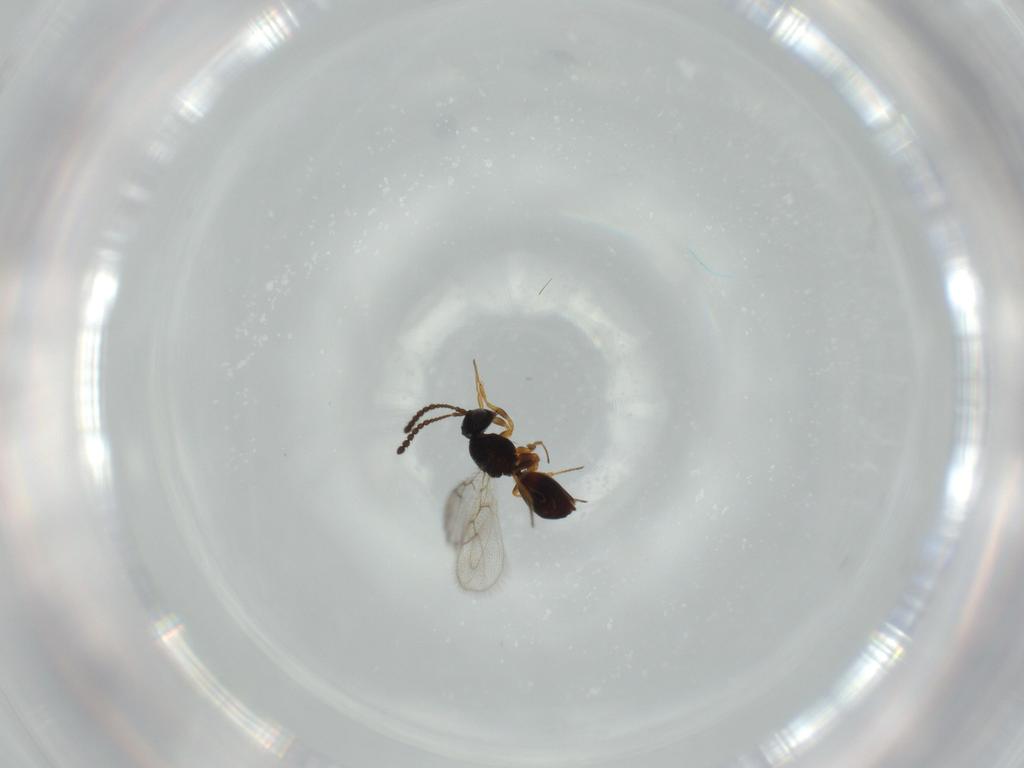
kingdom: Animalia
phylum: Arthropoda
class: Insecta
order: Hymenoptera
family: Figitidae
